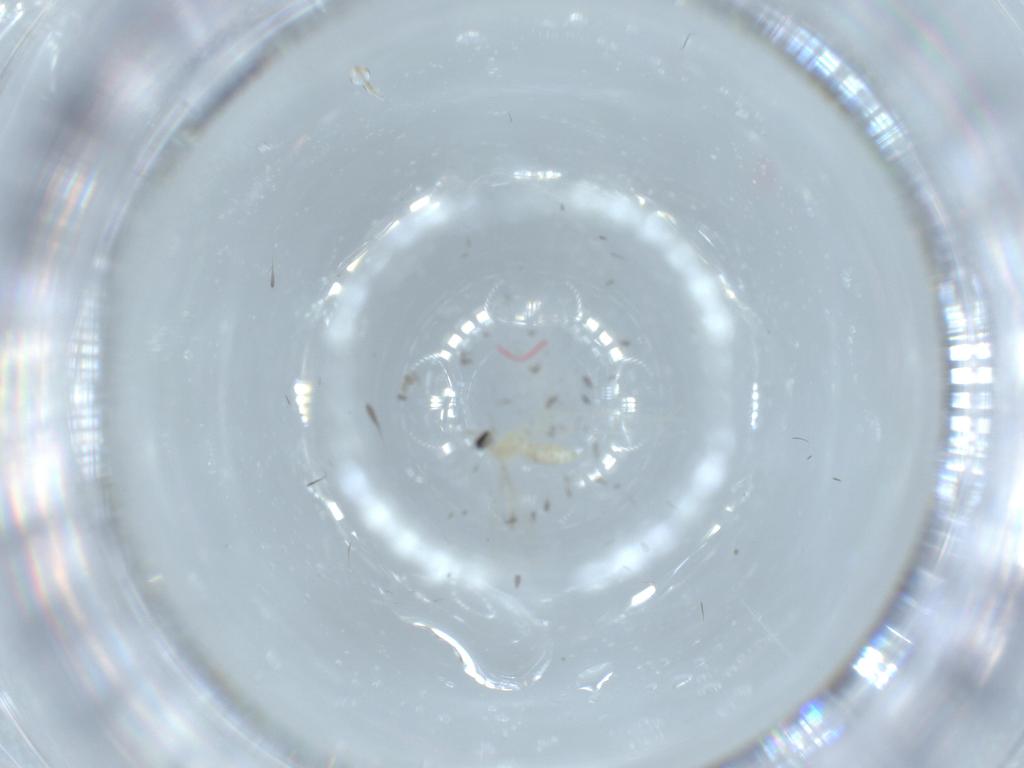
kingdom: Animalia
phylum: Arthropoda
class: Insecta
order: Diptera
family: Cecidomyiidae
